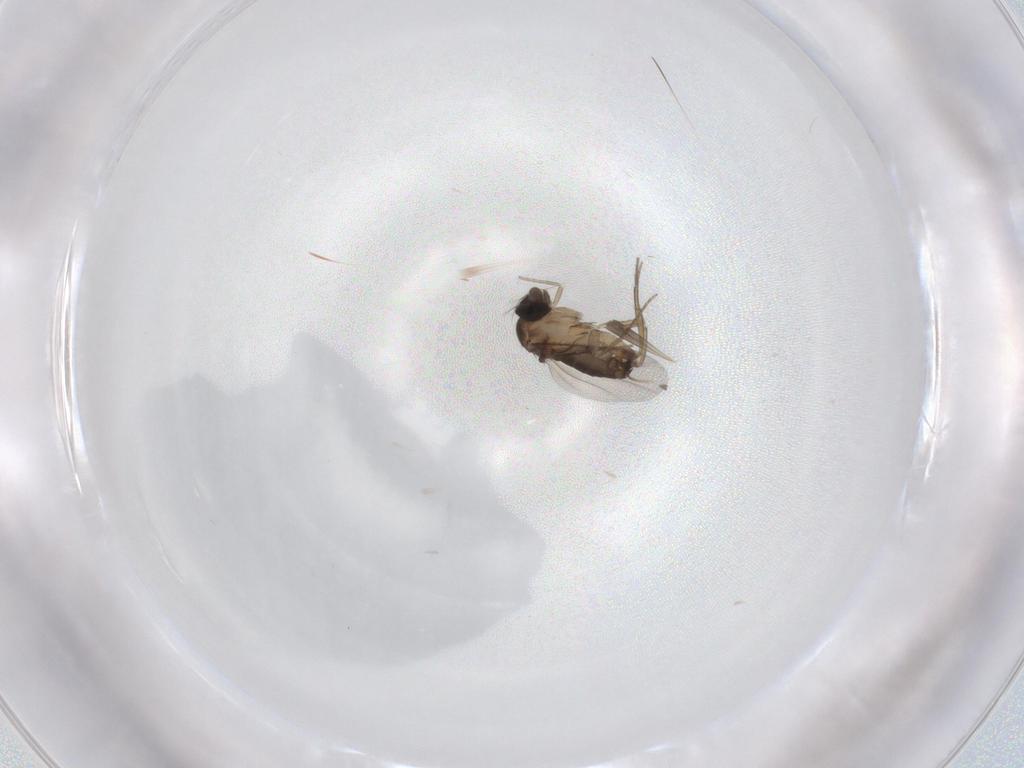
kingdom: Animalia
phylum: Arthropoda
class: Insecta
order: Diptera
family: Phoridae
